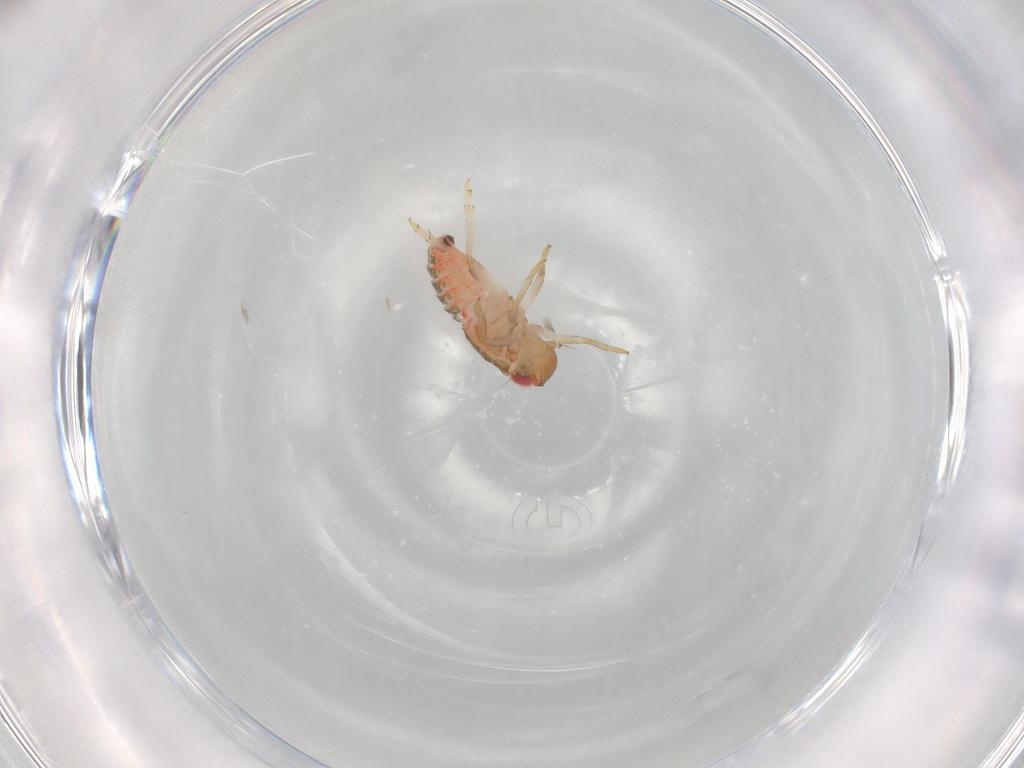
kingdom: Animalia
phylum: Arthropoda
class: Insecta
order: Hemiptera
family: Issidae
